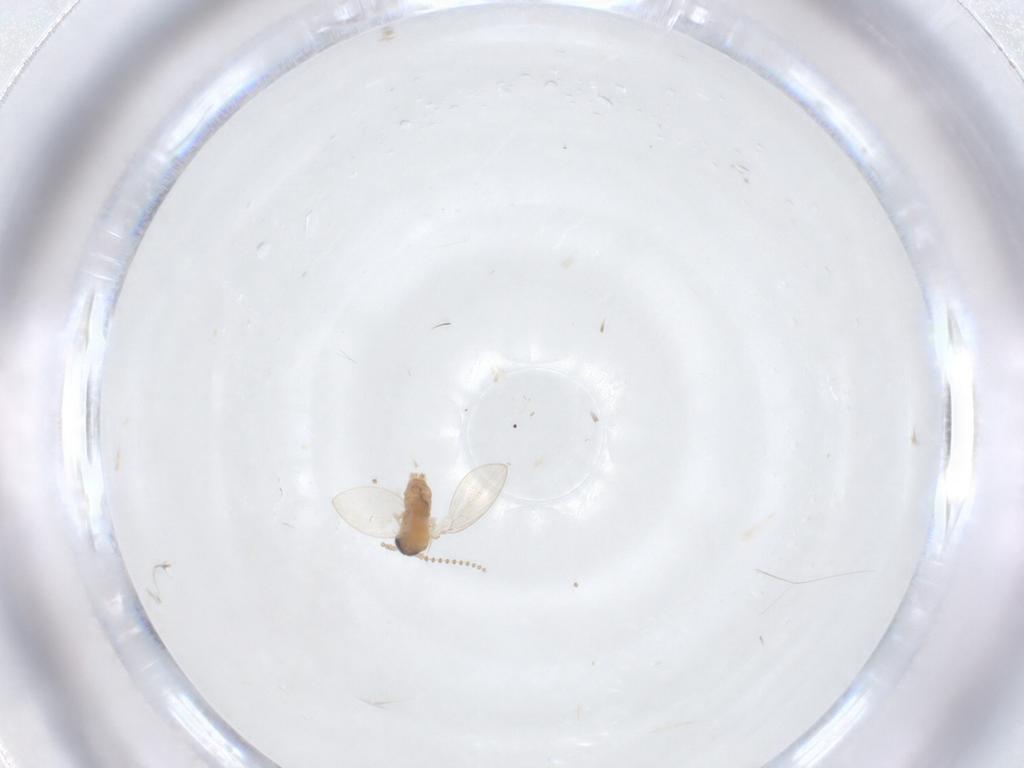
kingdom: Animalia
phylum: Arthropoda
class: Insecta
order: Diptera
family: Psychodidae
